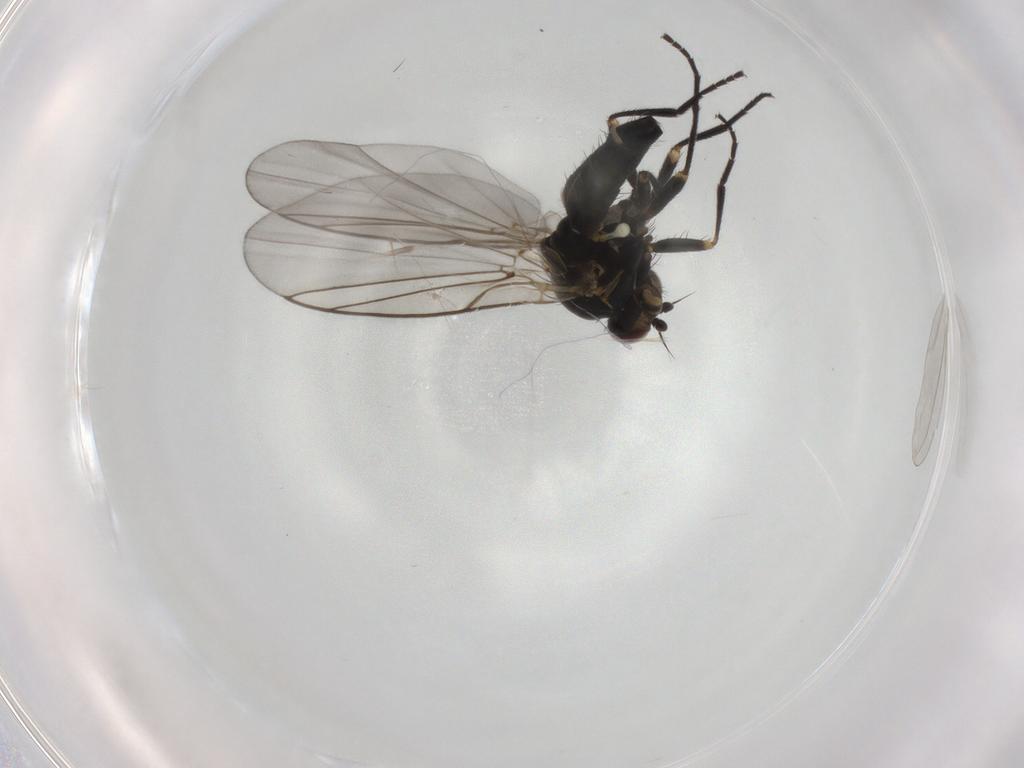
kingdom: Animalia
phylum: Arthropoda
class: Insecta
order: Diptera
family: Chironomidae
